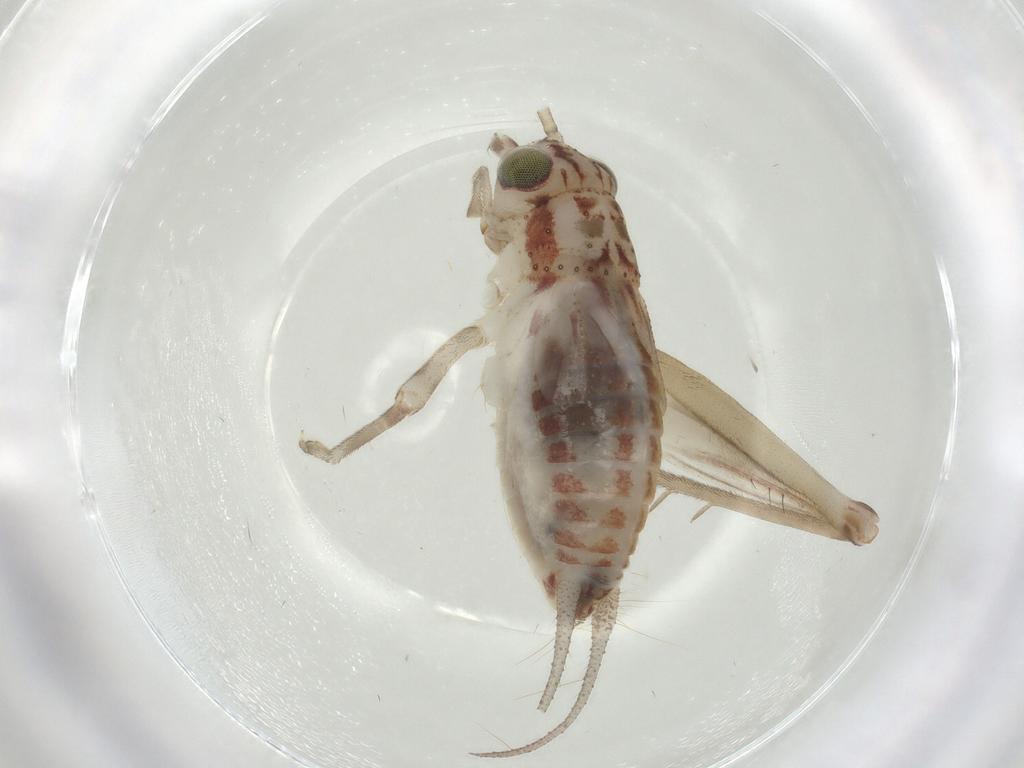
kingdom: Animalia
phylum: Arthropoda
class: Insecta
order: Orthoptera
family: Trigonidiidae
